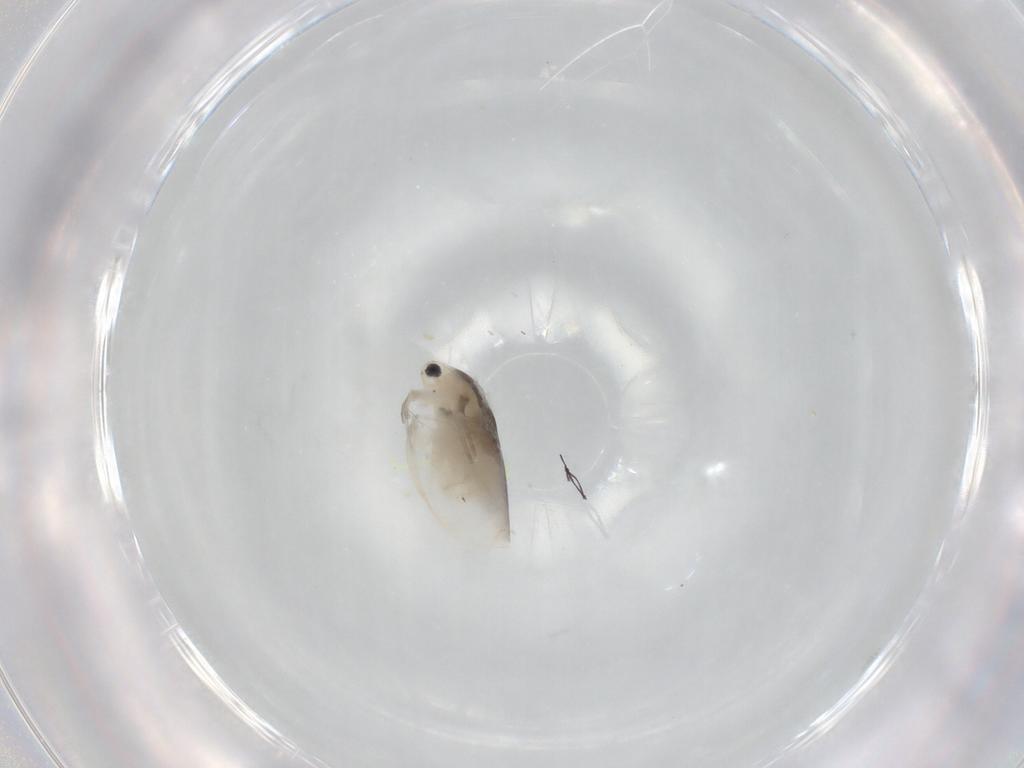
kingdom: Animalia
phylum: Arthropoda
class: Branchiopoda
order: Diplostraca
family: Daphniidae
